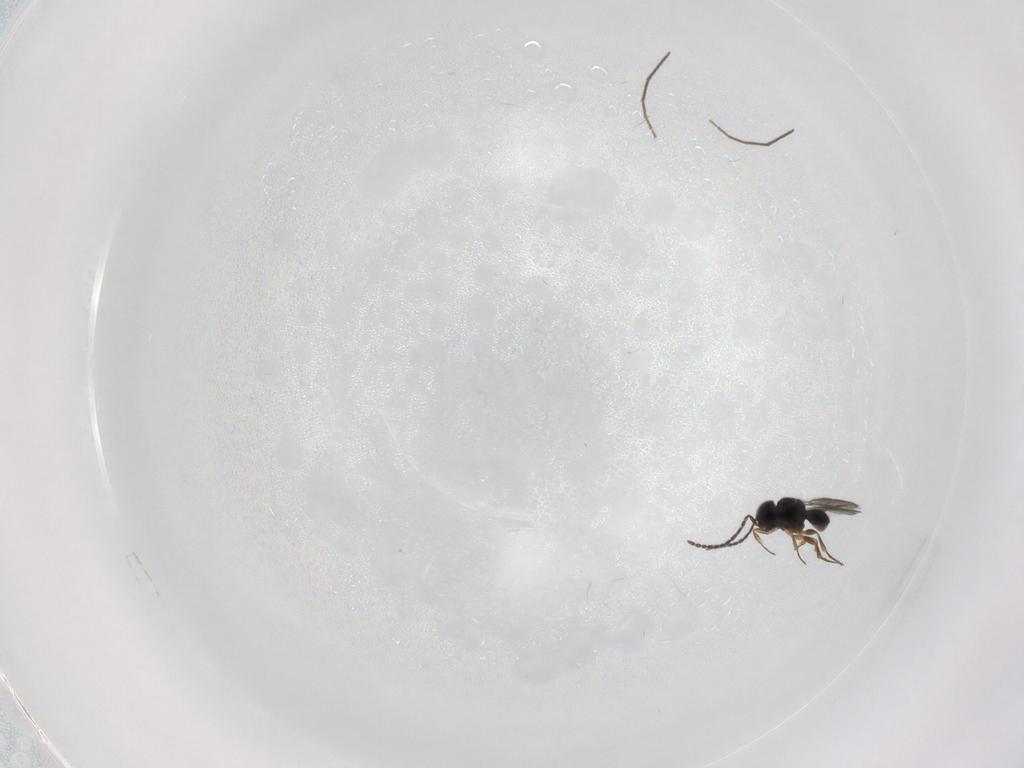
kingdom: Animalia
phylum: Arthropoda
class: Insecta
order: Hymenoptera
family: Scelionidae
